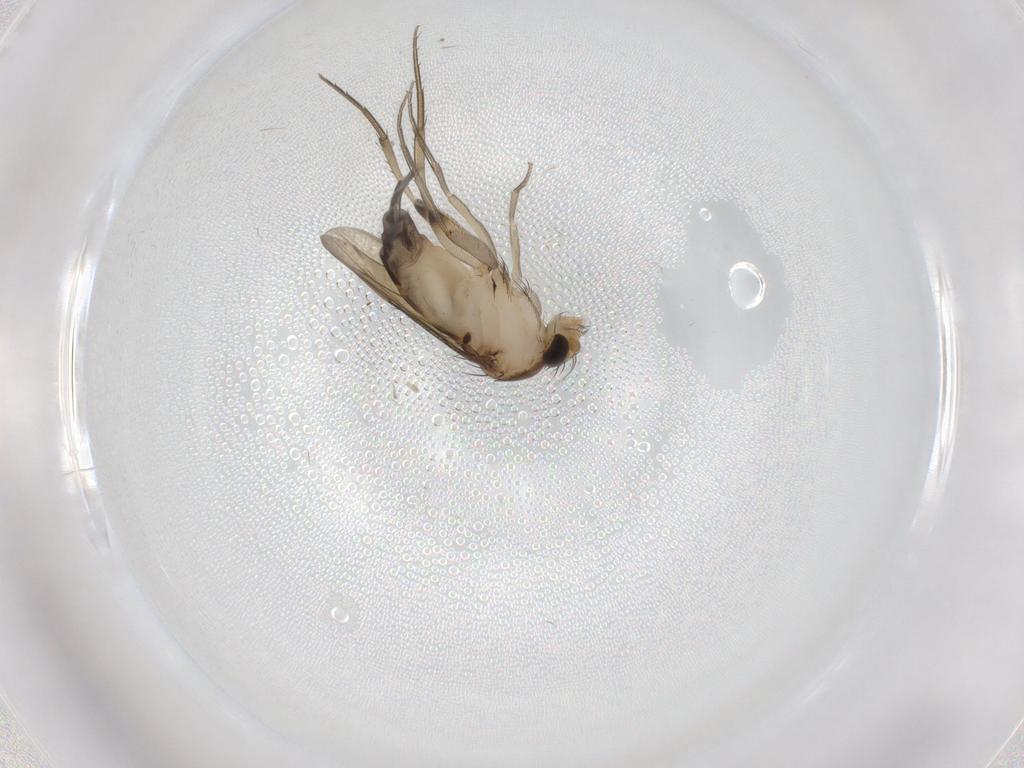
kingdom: Animalia
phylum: Arthropoda
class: Insecta
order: Diptera
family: Phoridae
